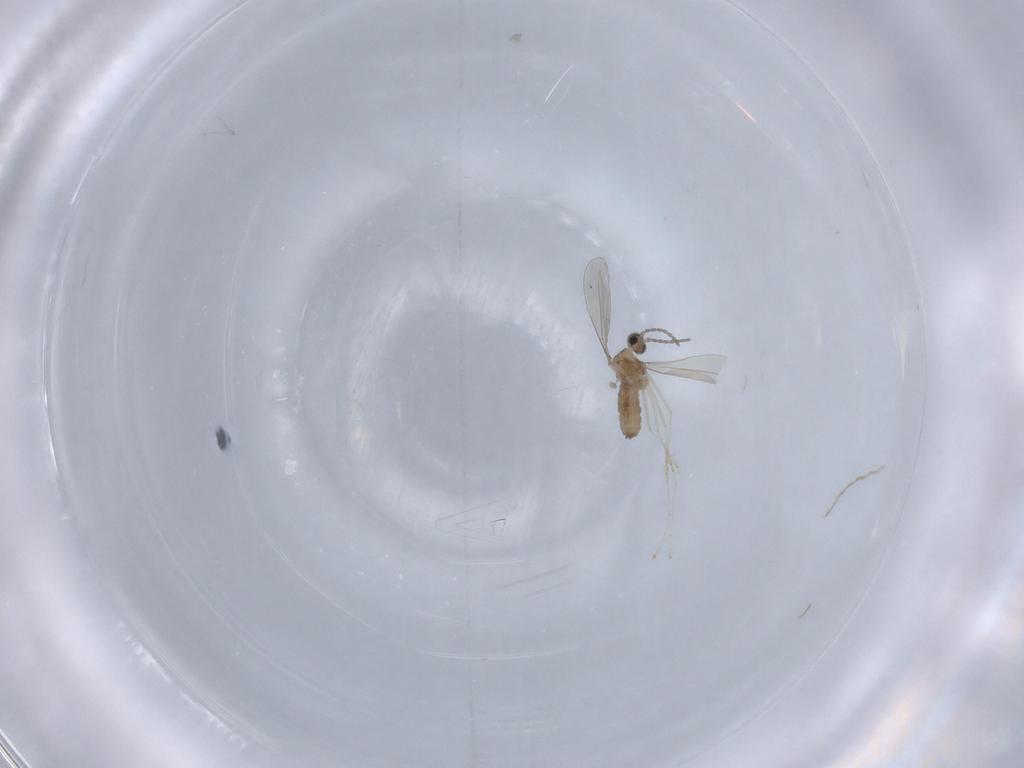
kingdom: Animalia
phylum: Arthropoda
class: Insecta
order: Diptera
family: Cecidomyiidae
